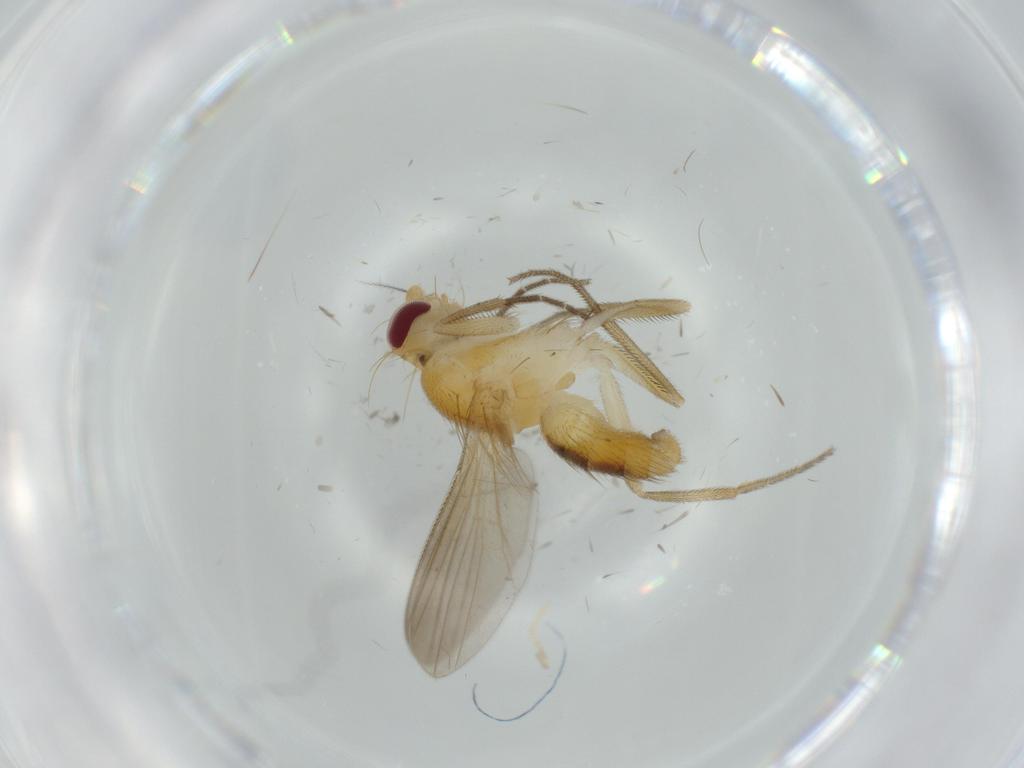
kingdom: Animalia
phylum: Arthropoda
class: Insecta
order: Diptera
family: Clusiidae
